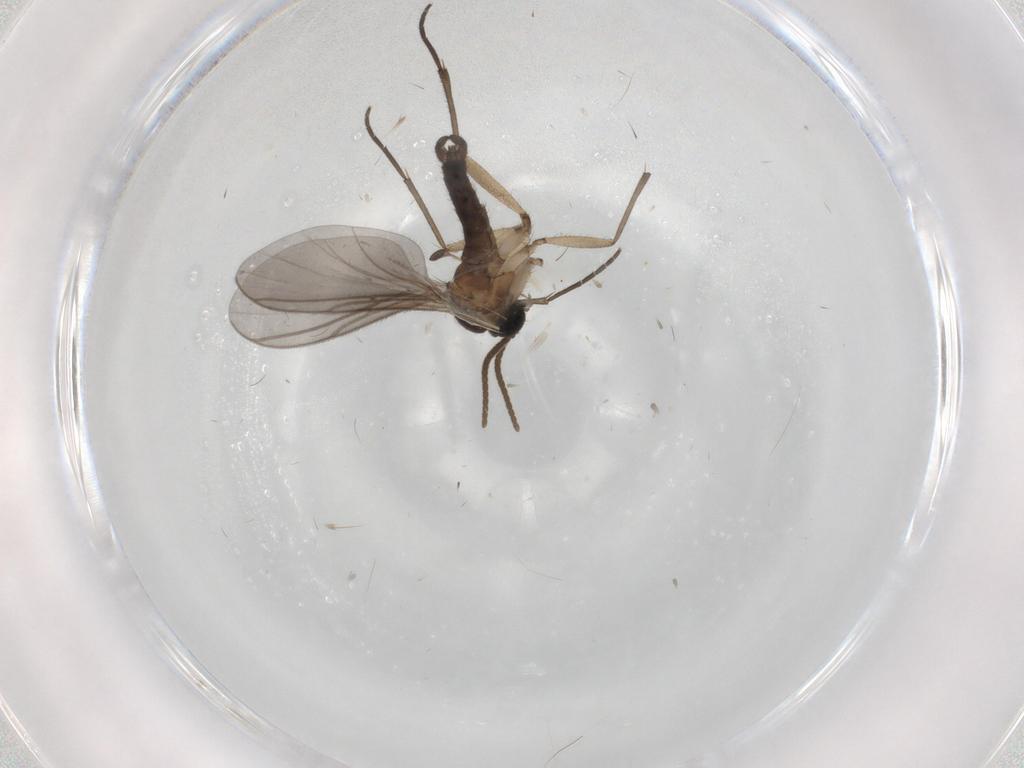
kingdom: Animalia
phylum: Arthropoda
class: Insecta
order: Diptera
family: Cecidomyiidae
